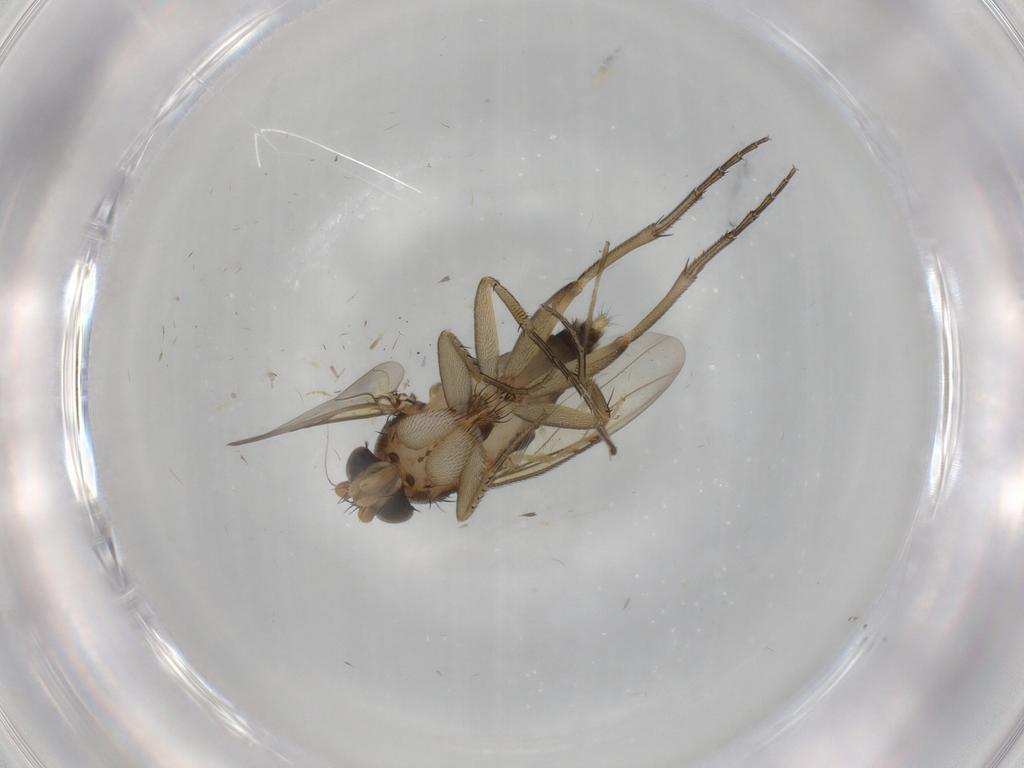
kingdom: Animalia
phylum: Arthropoda
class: Insecta
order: Diptera
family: Phoridae
